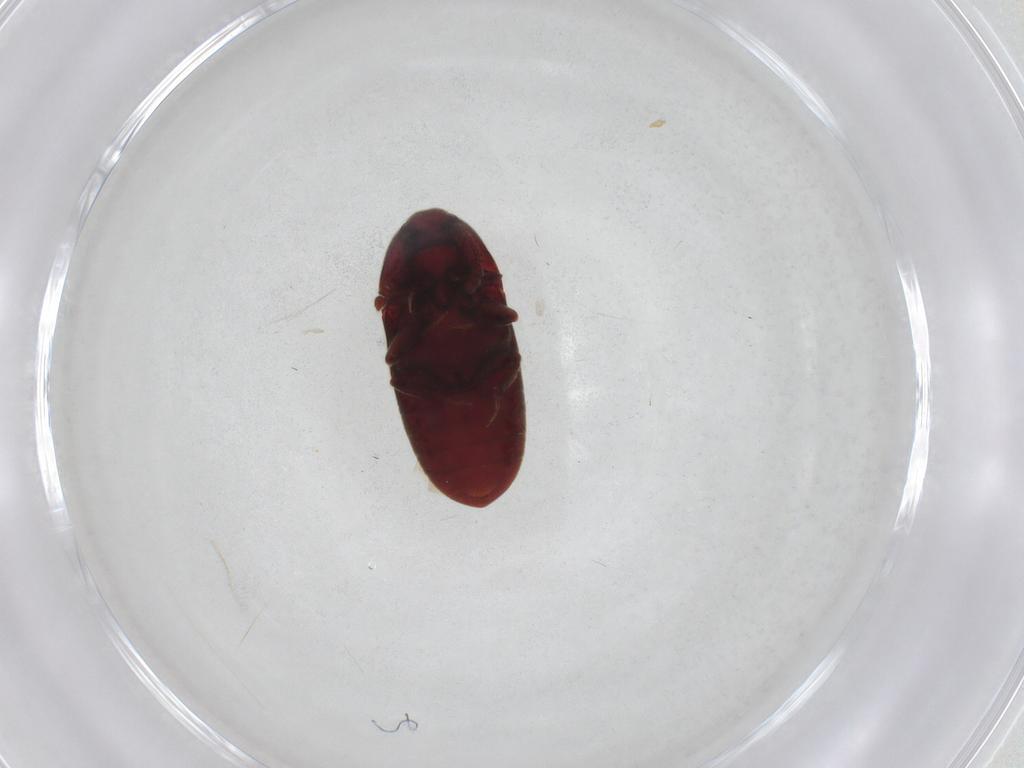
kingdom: Animalia
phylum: Arthropoda
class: Insecta
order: Coleoptera
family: Throscidae
